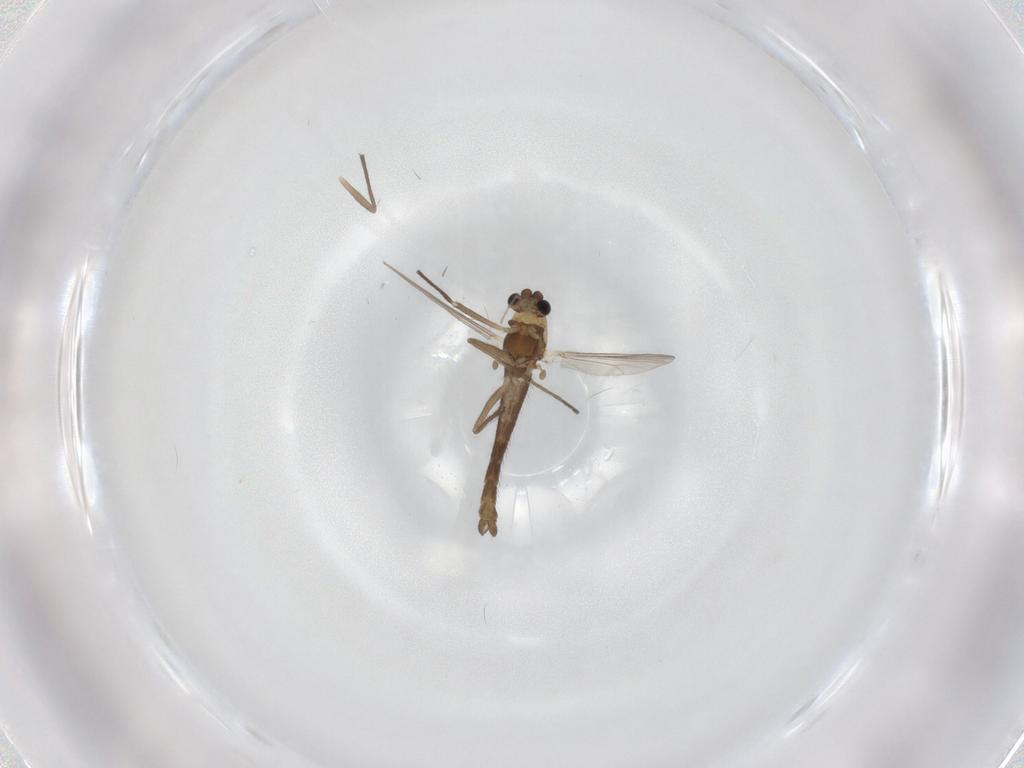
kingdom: Animalia
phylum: Arthropoda
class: Insecta
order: Diptera
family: Chironomidae
